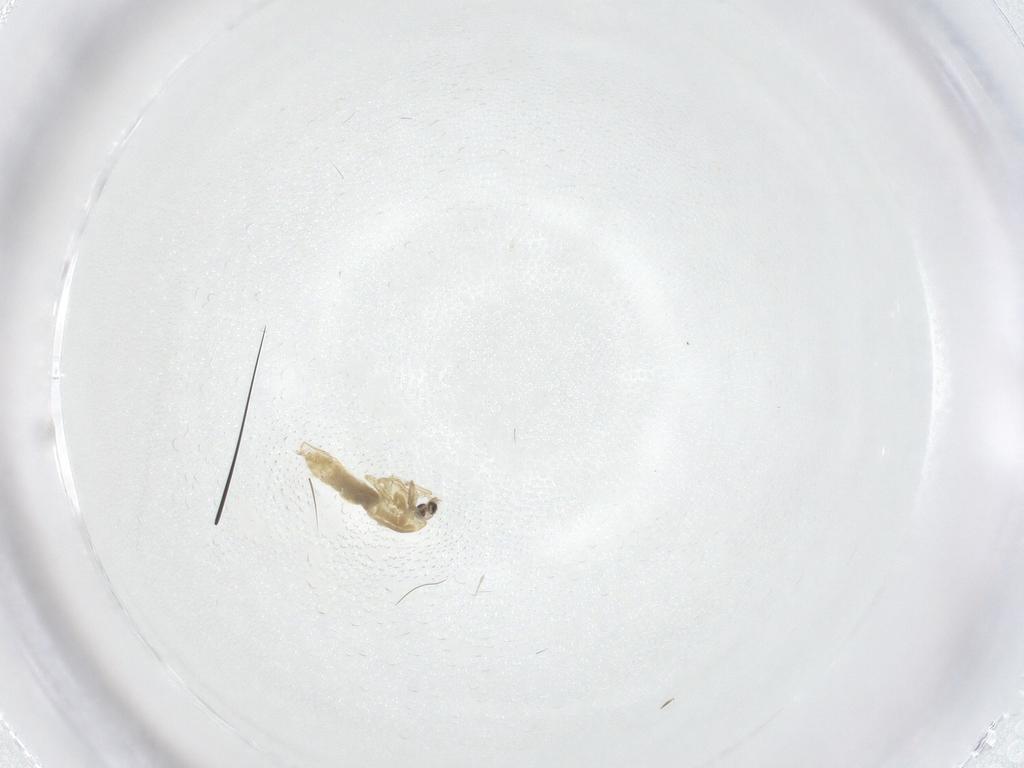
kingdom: Animalia
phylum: Arthropoda
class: Insecta
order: Diptera
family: Ceratopogonidae
